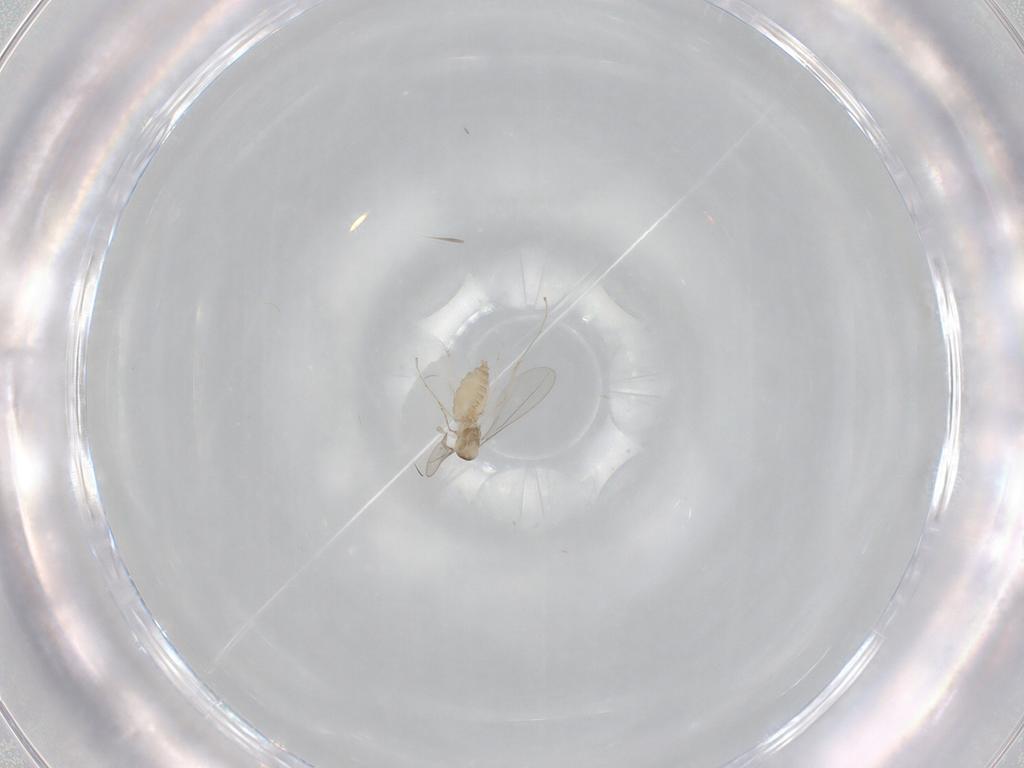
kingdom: Animalia
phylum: Arthropoda
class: Insecta
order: Diptera
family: Cecidomyiidae
